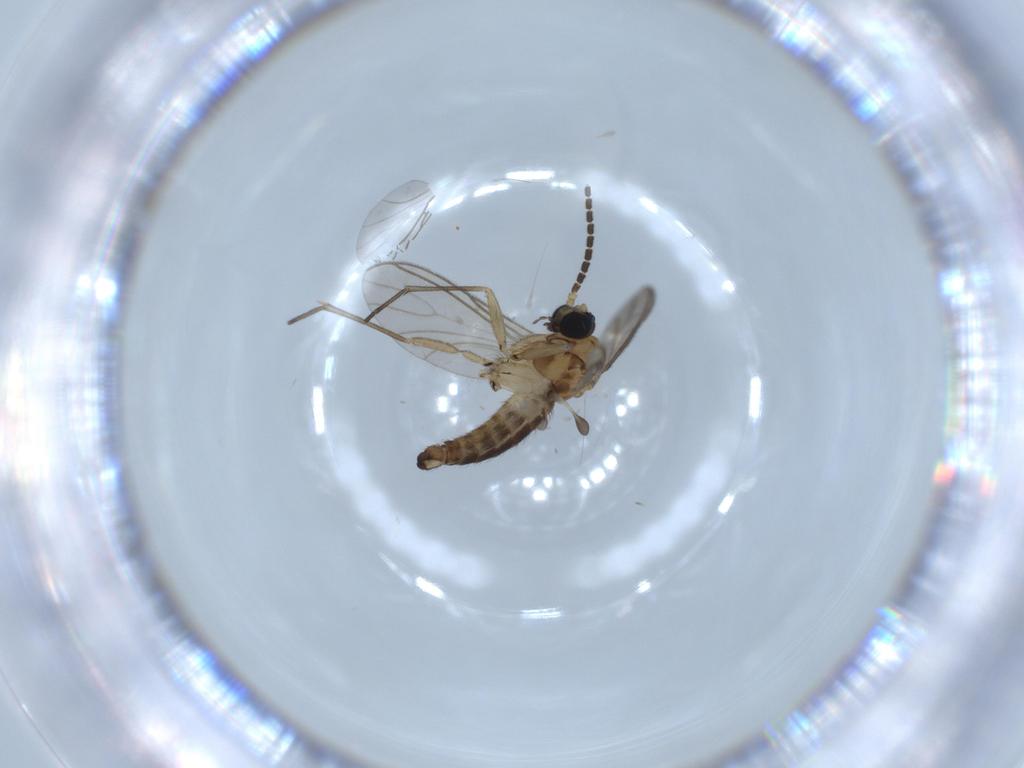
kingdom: Animalia
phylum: Arthropoda
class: Insecta
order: Diptera
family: Sciaridae
